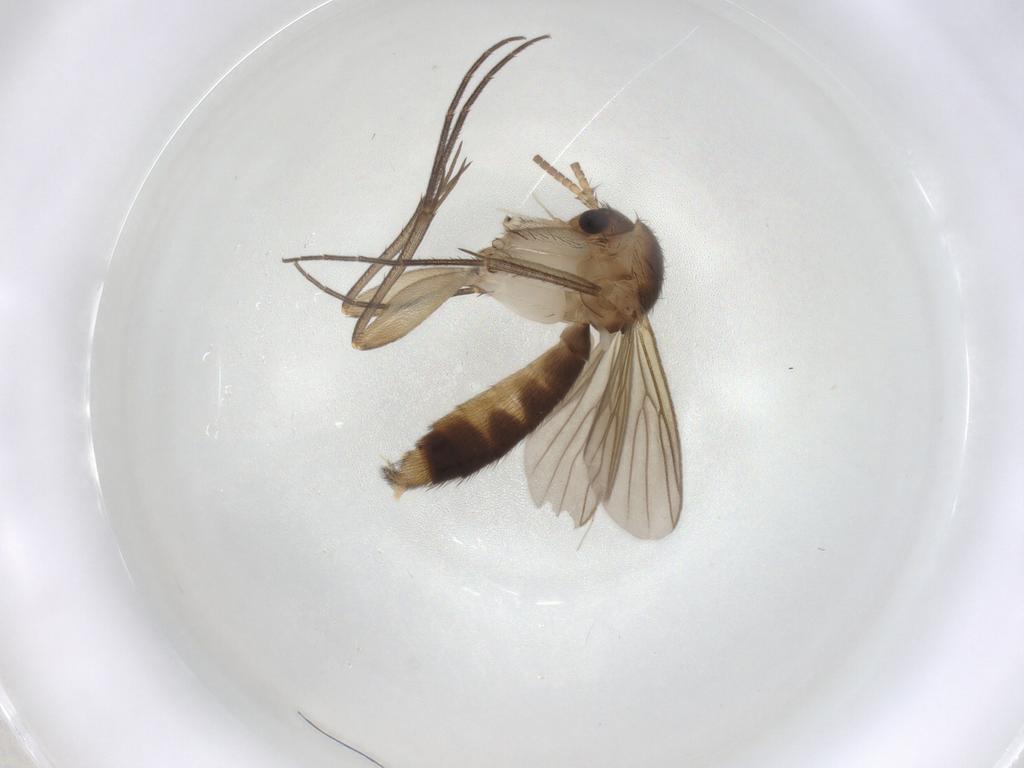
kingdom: Animalia
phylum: Arthropoda
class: Insecta
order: Diptera
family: Mycetophilidae
